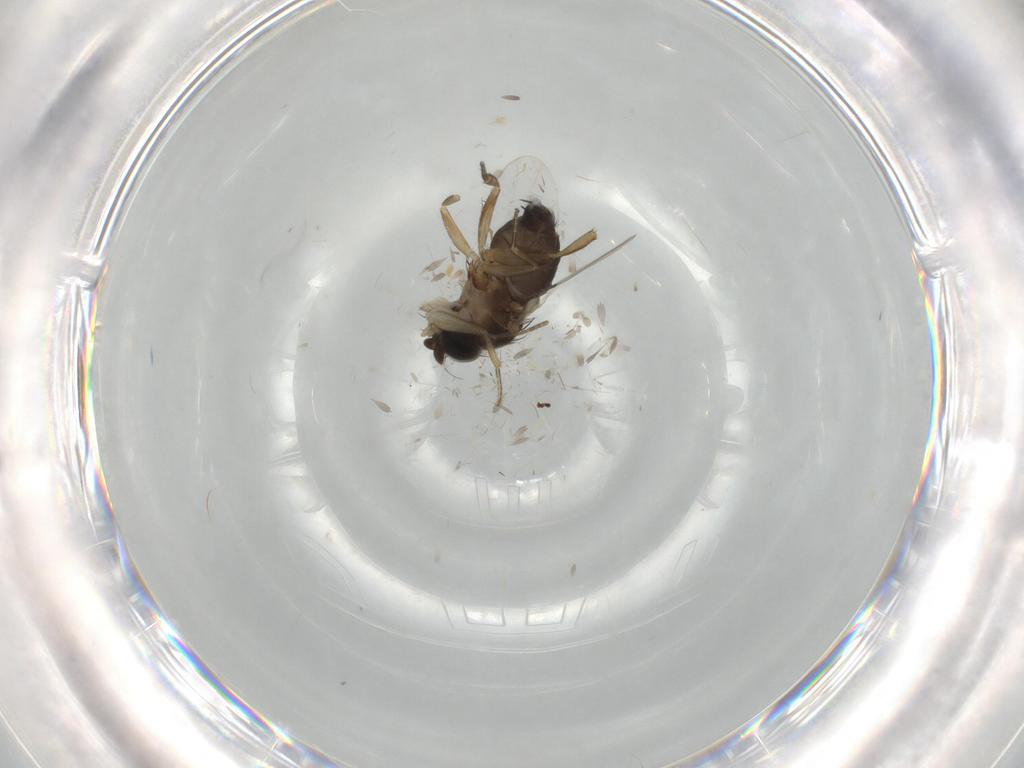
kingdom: Animalia
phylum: Arthropoda
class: Insecta
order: Diptera
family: Psychodidae
